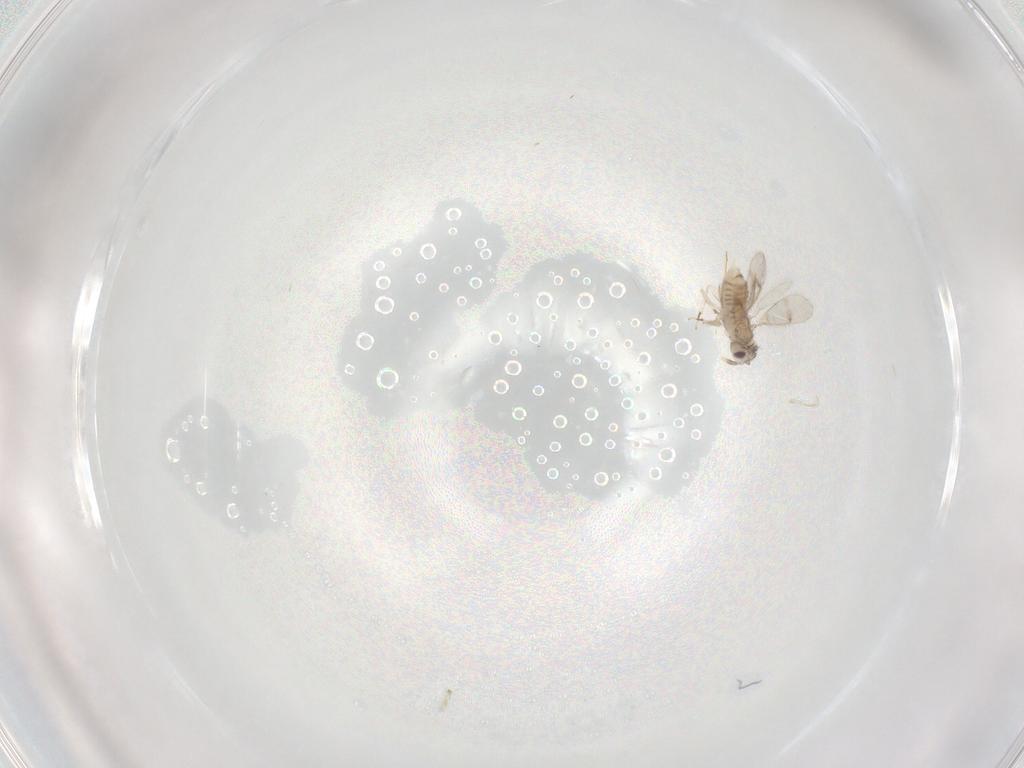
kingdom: Animalia
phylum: Arthropoda
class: Insecta
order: Hymenoptera
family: Aphelinidae
